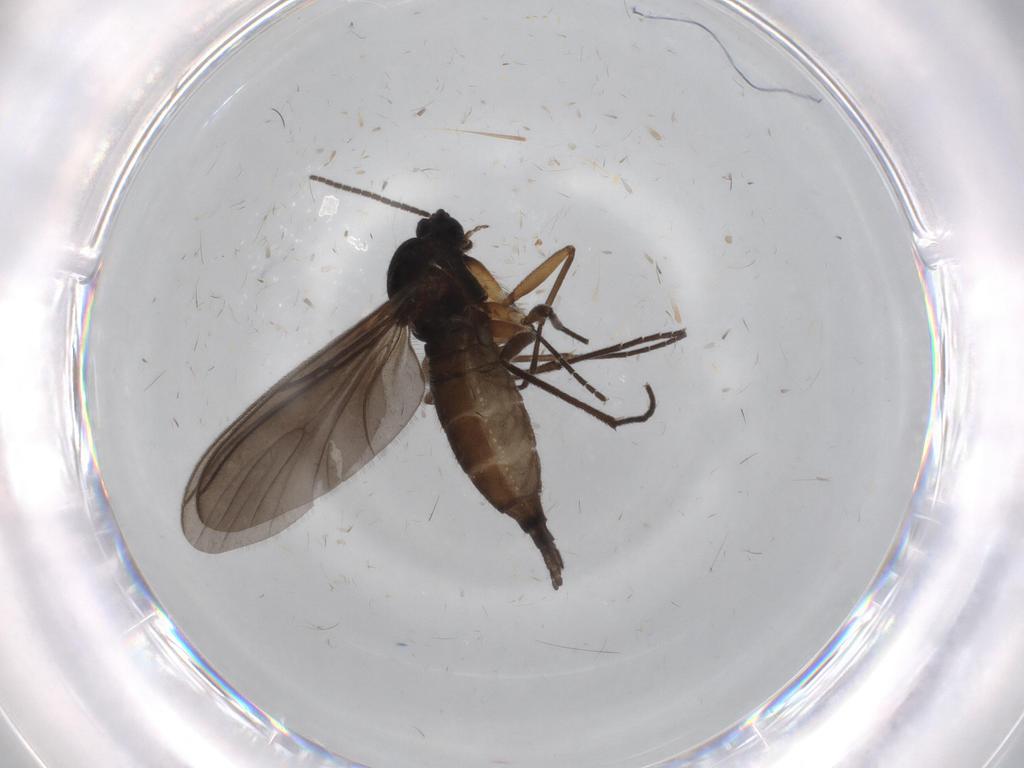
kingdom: Animalia
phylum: Arthropoda
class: Insecta
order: Diptera
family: Sciaridae
